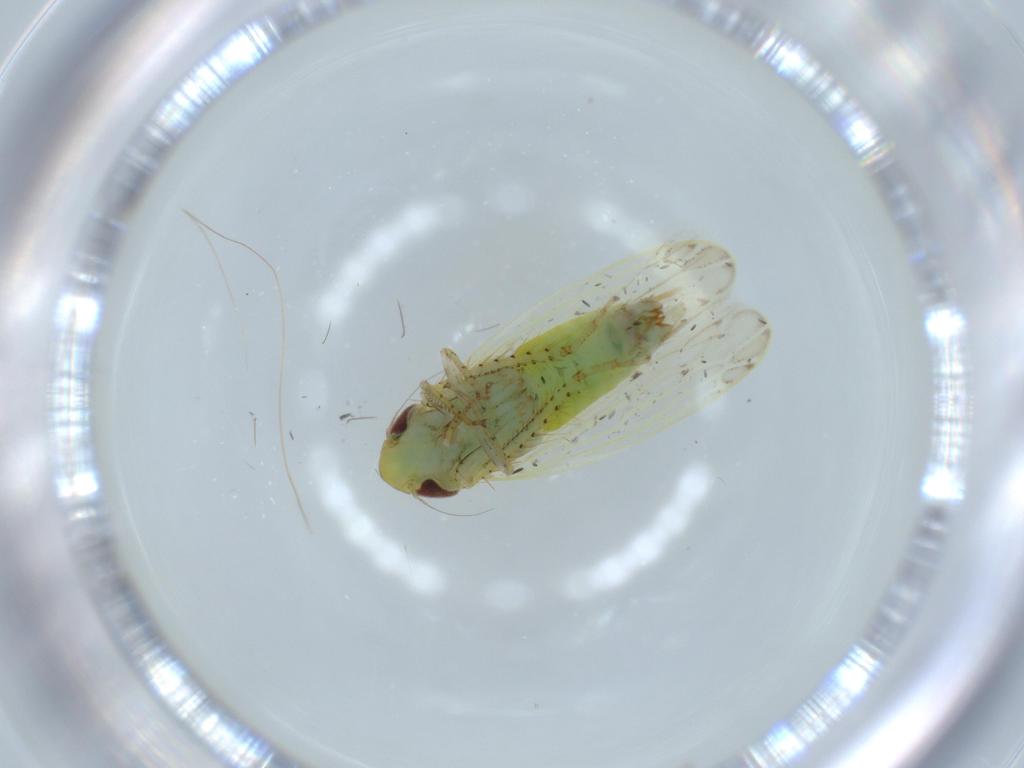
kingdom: Animalia
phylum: Arthropoda
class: Insecta
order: Hemiptera
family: Cicadellidae
